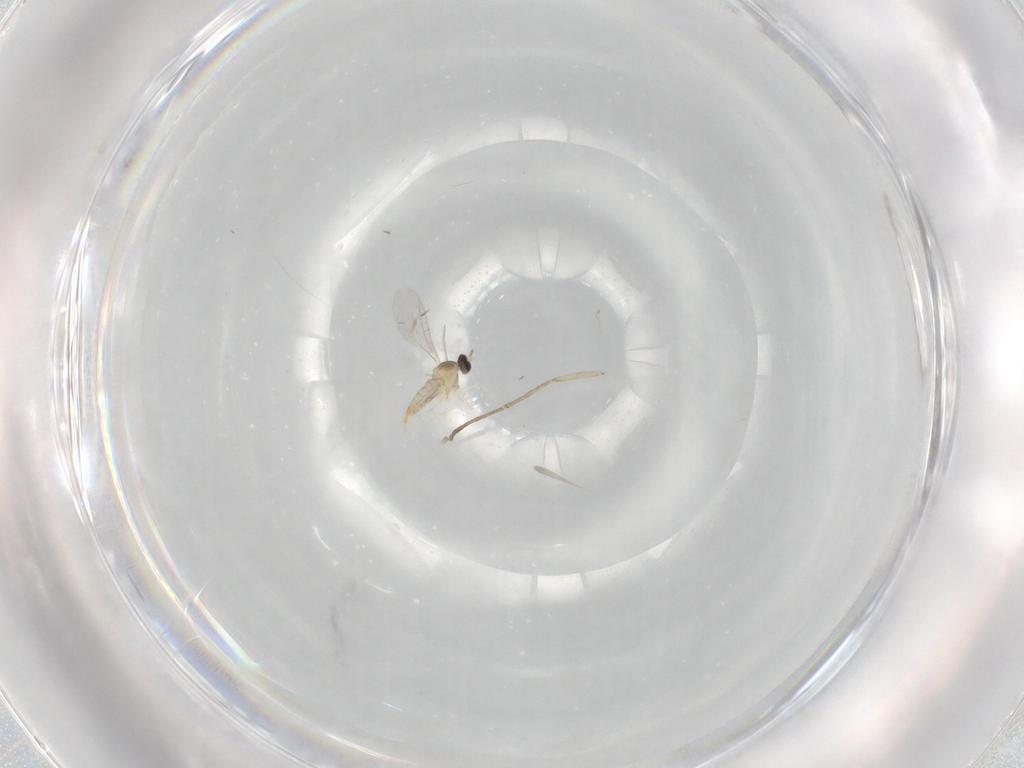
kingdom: Animalia
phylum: Arthropoda
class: Insecta
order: Diptera
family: Cecidomyiidae
